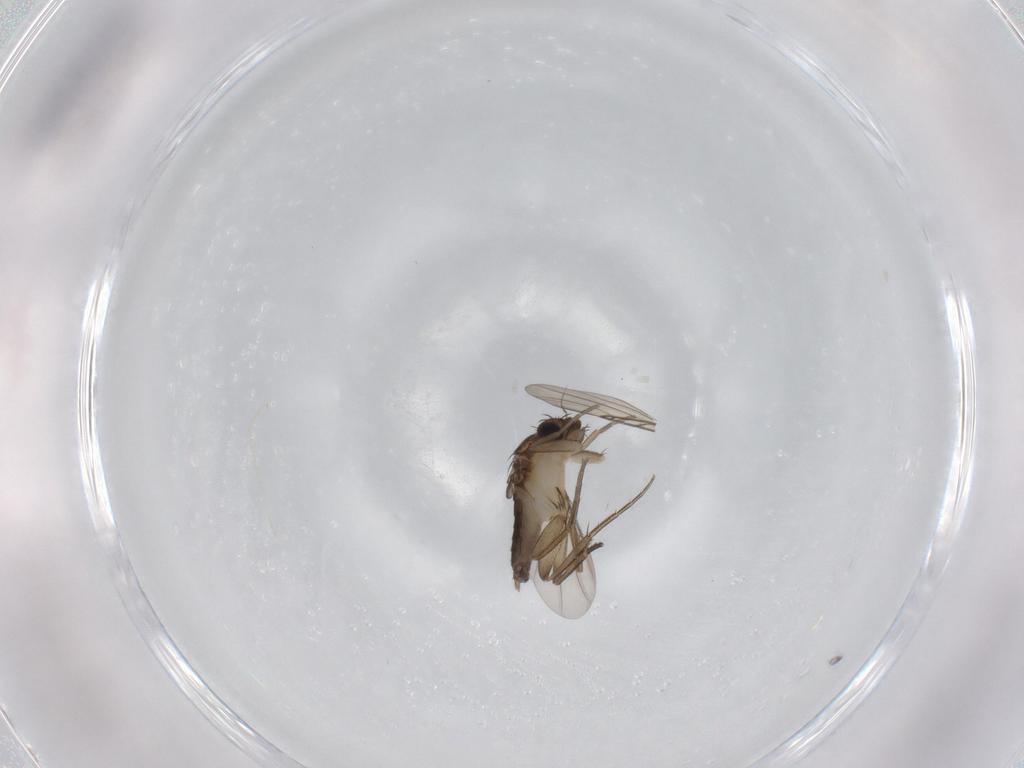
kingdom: Animalia
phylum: Arthropoda
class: Insecta
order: Diptera
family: Phoridae
